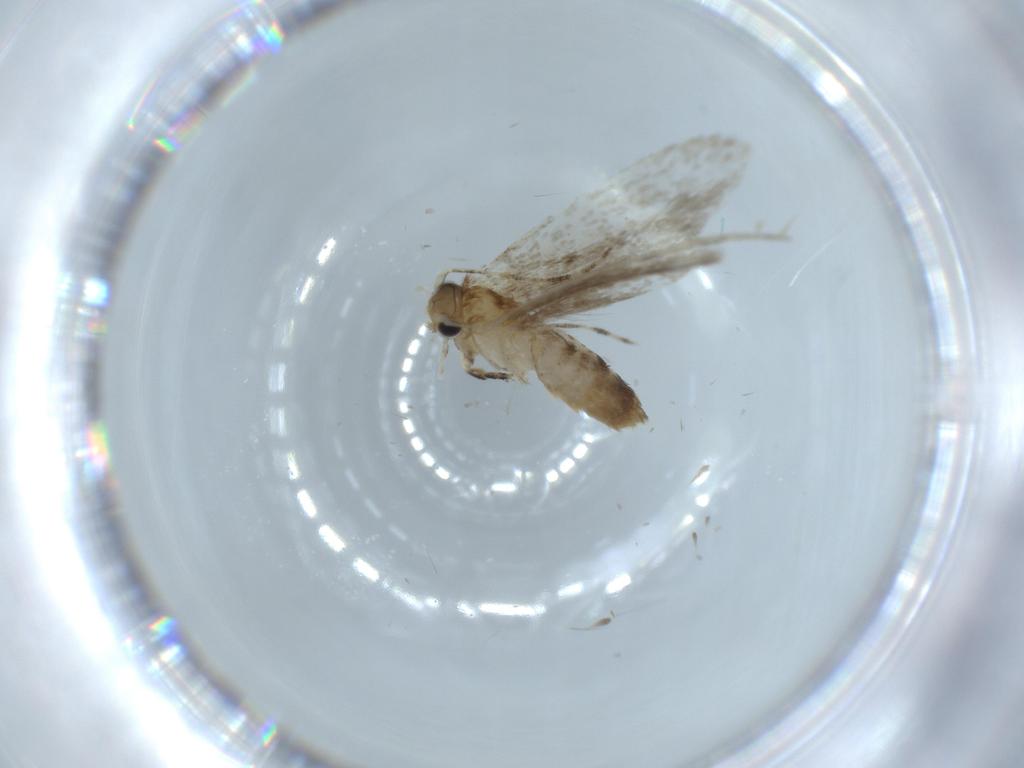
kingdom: Animalia
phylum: Arthropoda
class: Insecta
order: Lepidoptera
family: Tineidae
